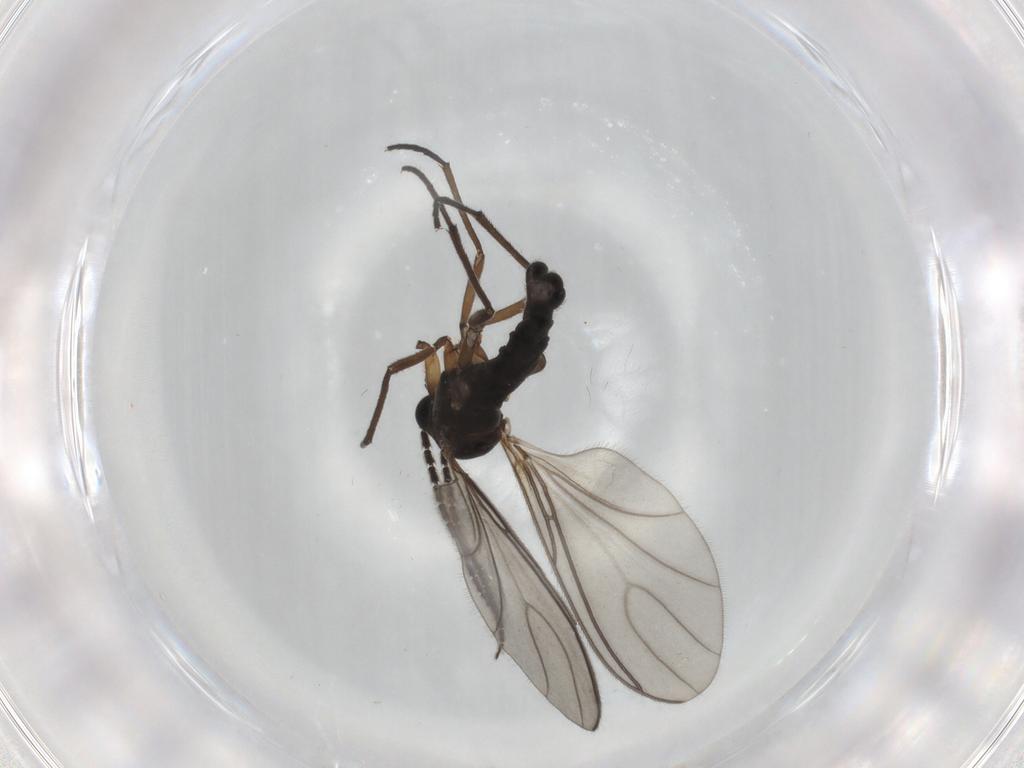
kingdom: Animalia
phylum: Arthropoda
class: Insecta
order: Diptera
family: Sciaridae
